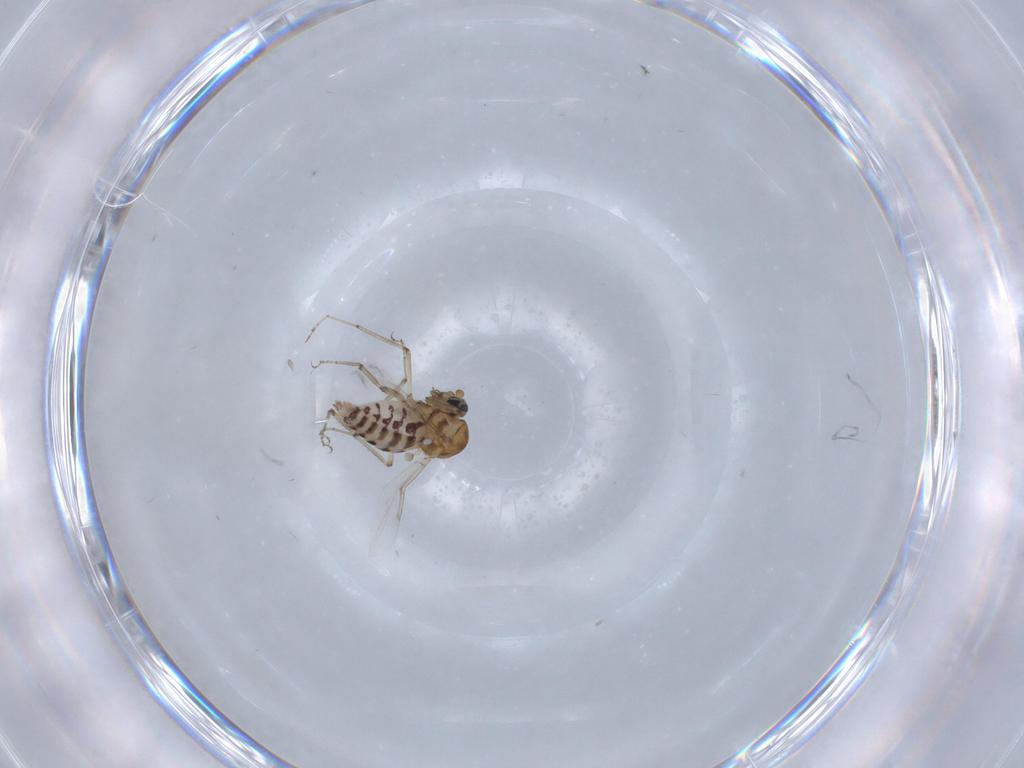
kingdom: Animalia
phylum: Arthropoda
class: Insecta
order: Diptera
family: Ceratopogonidae
